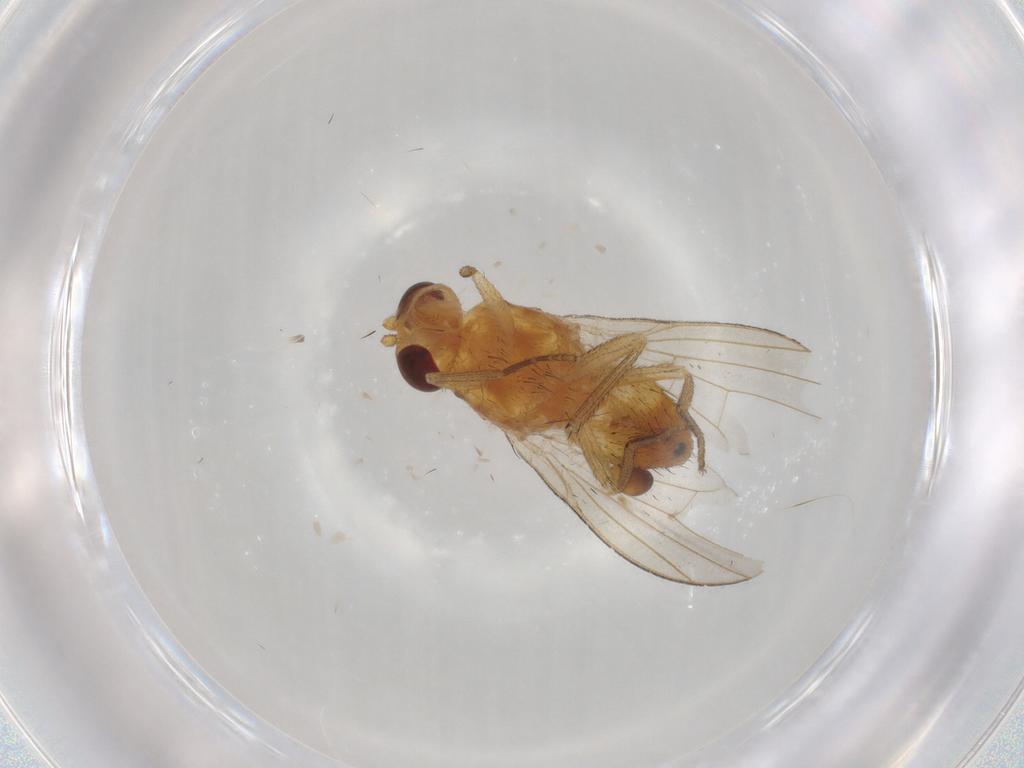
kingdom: Animalia
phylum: Arthropoda
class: Insecta
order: Diptera
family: Syrphidae
